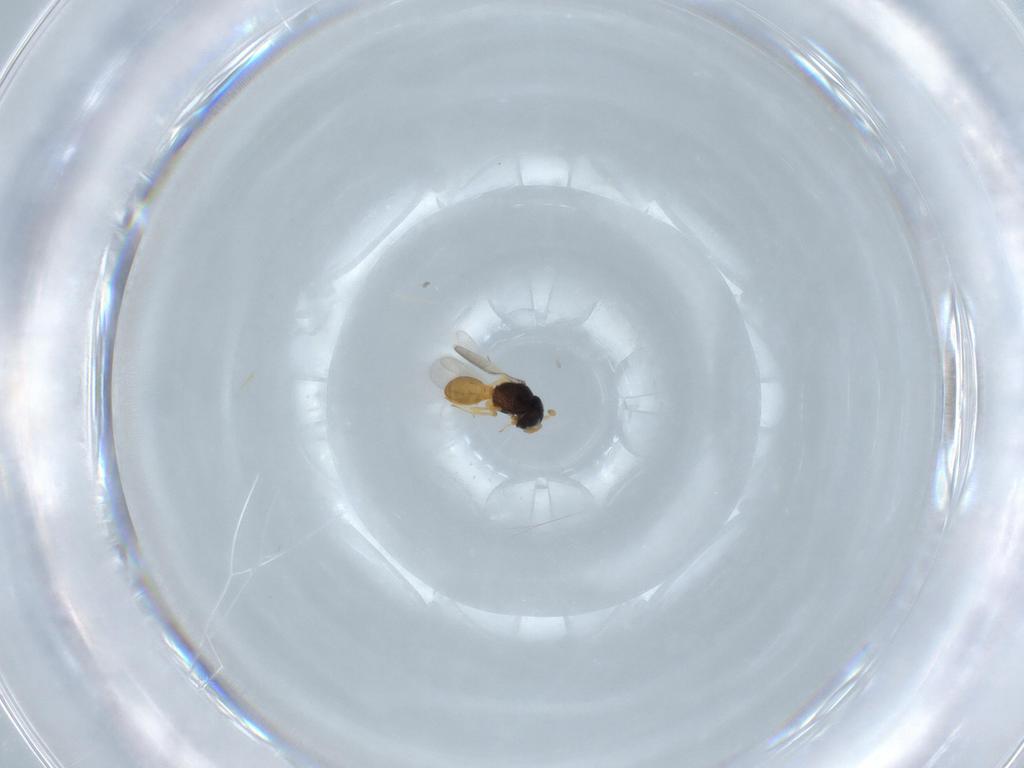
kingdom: Animalia
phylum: Arthropoda
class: Insecta
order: Hymenoptera
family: Scelionidae
